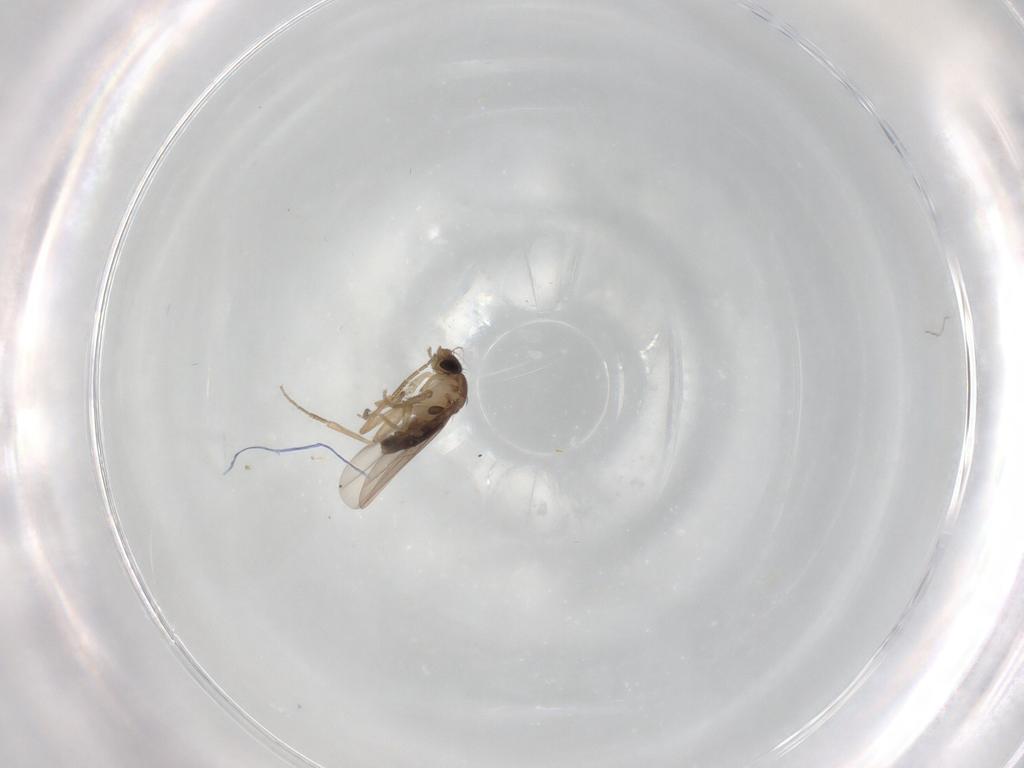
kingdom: Animalia
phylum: Arthropoda
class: Insecta
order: Diptera
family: Phoridae
